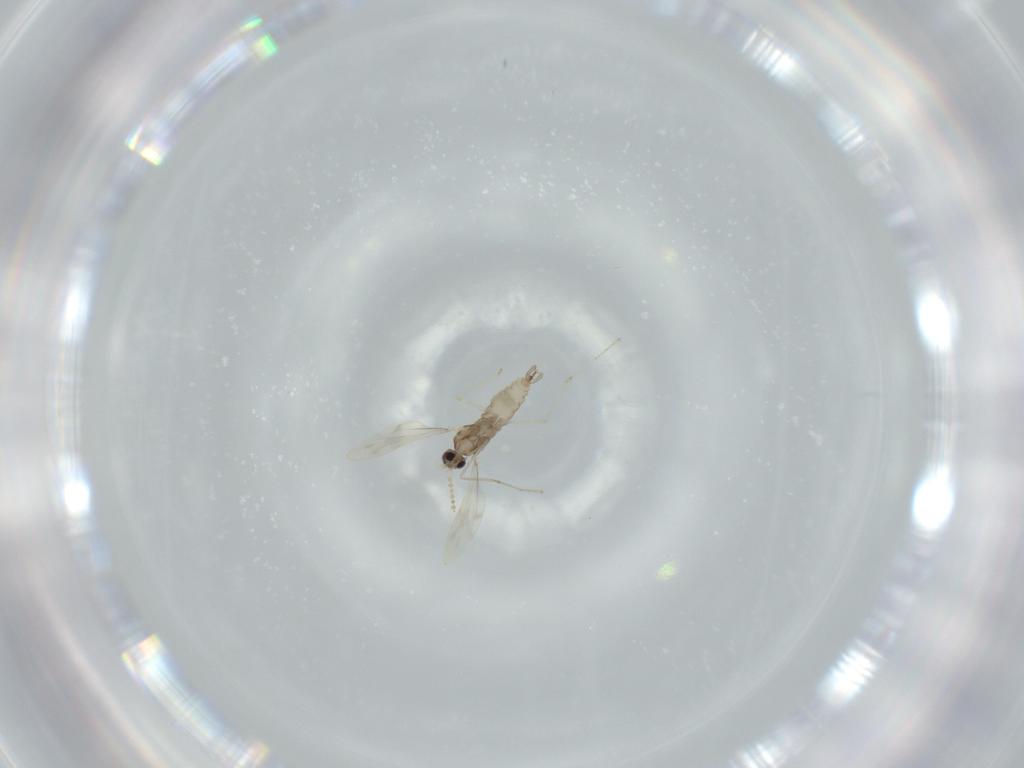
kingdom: Animalia
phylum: Arthropoda
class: Insecta
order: Diptera
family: Cecidomyiidae
